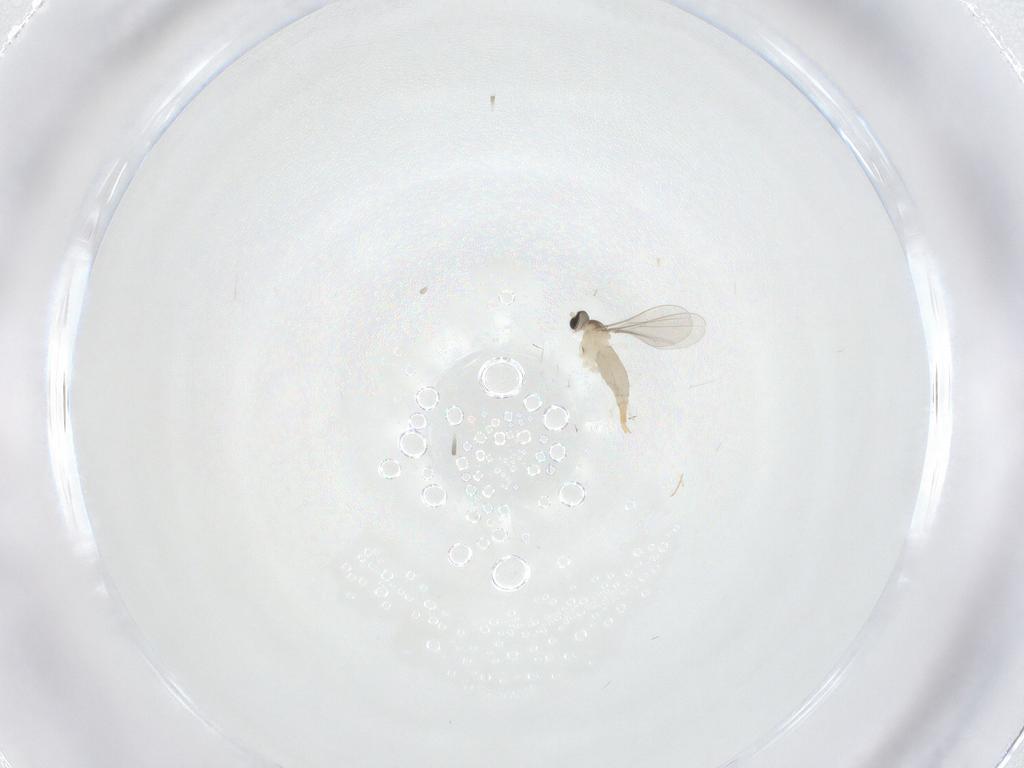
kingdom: Animalia
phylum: Arthropoda
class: Insecta
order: Diptera
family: Chironomidae
